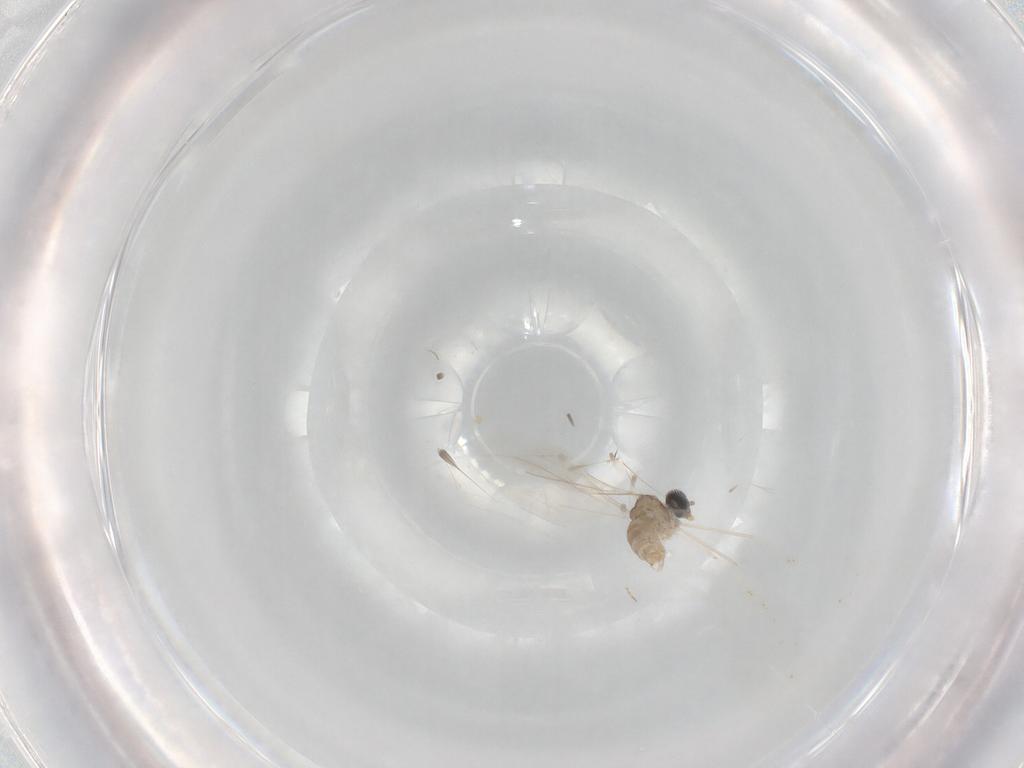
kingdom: Animalia
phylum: Arthropoda
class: Insecta
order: Diptera
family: Cecidomyiidae
